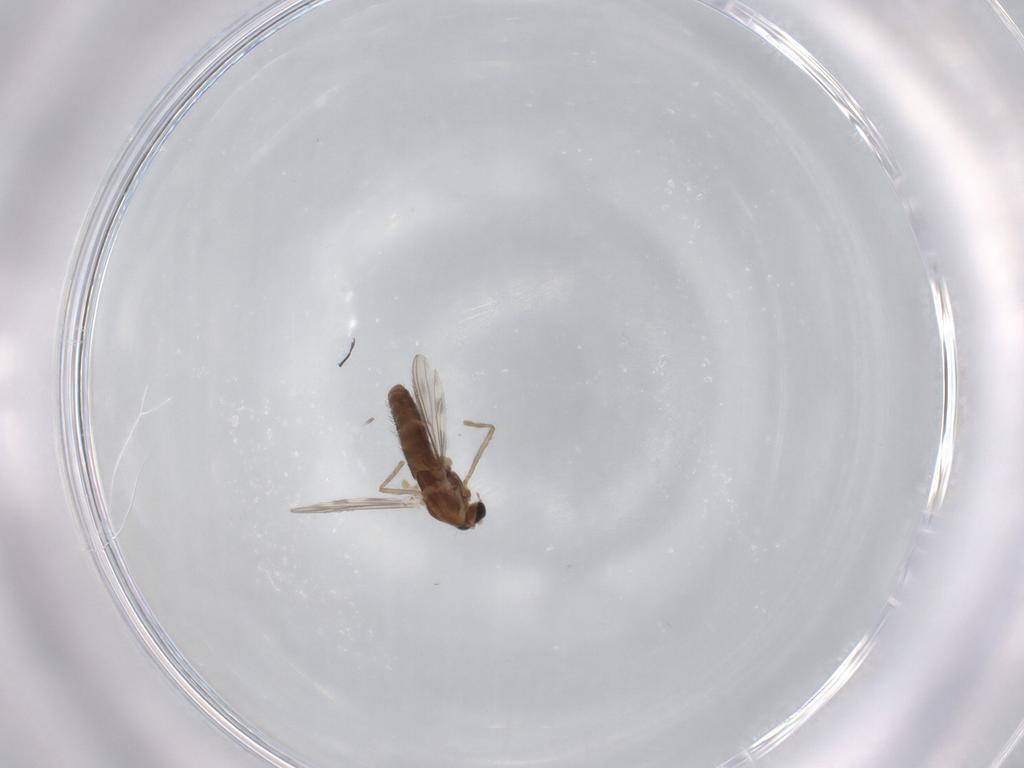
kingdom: Animalia
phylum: Arthropoda
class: Insecta
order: Diptera
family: Chironomidae
